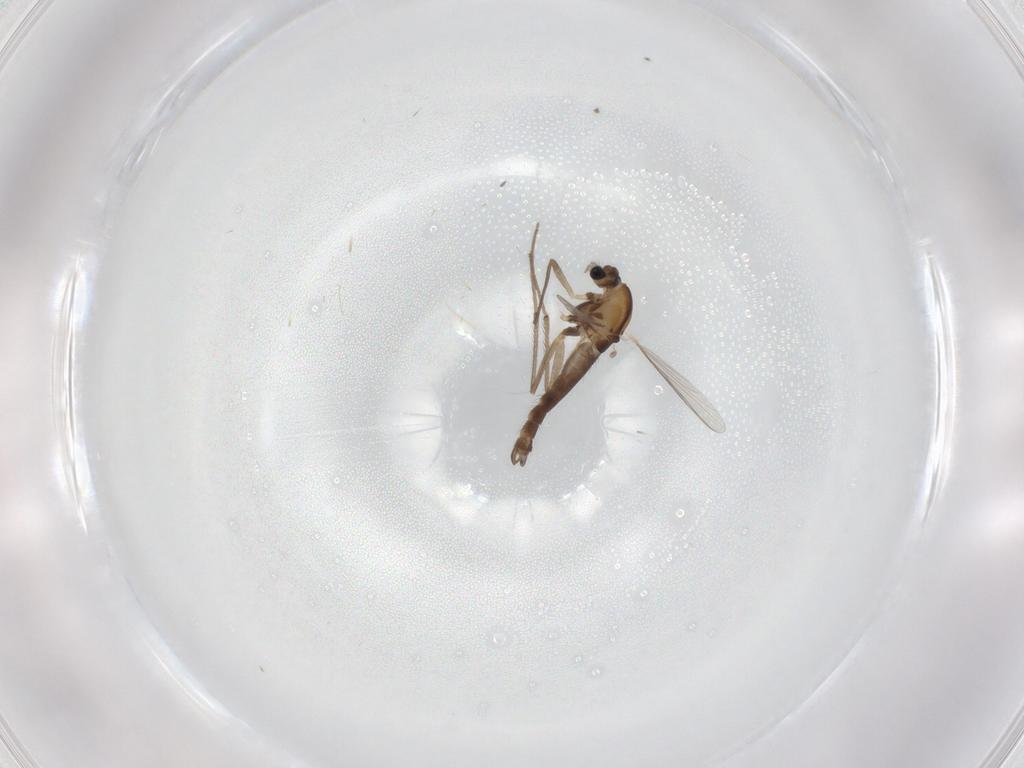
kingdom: Animalia
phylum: Arthropoda
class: Insecta
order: Diptera
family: Chironomidae
